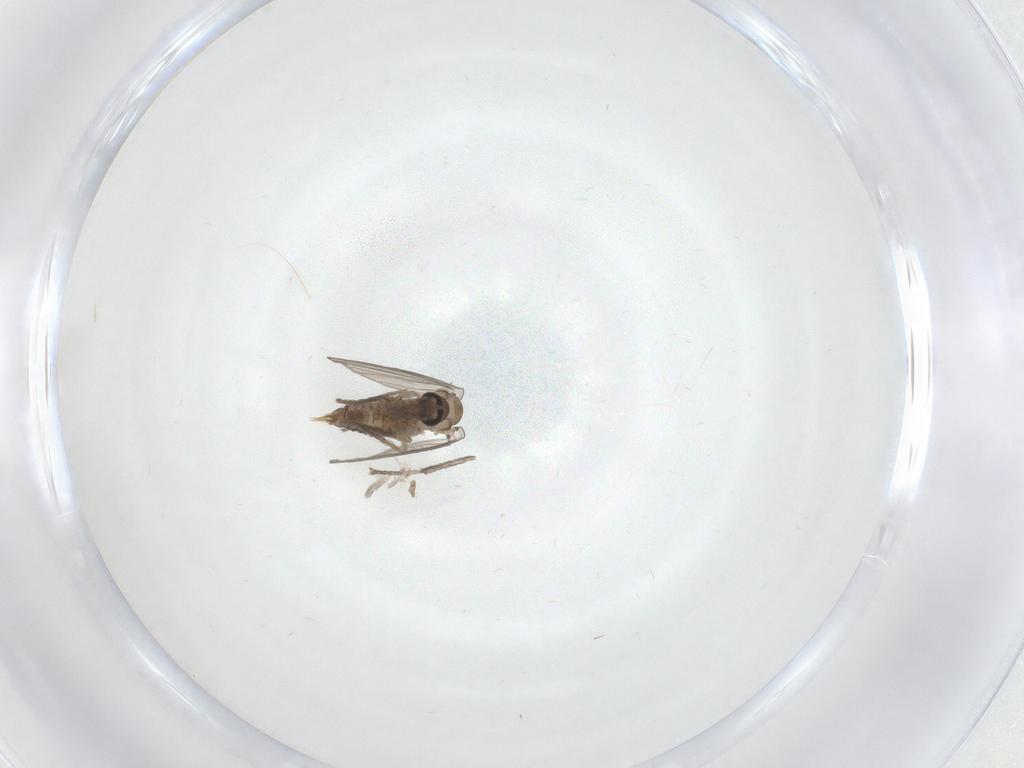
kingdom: Animalia
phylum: Arthropoda
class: Insecta
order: Diptera
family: Psychodidae
